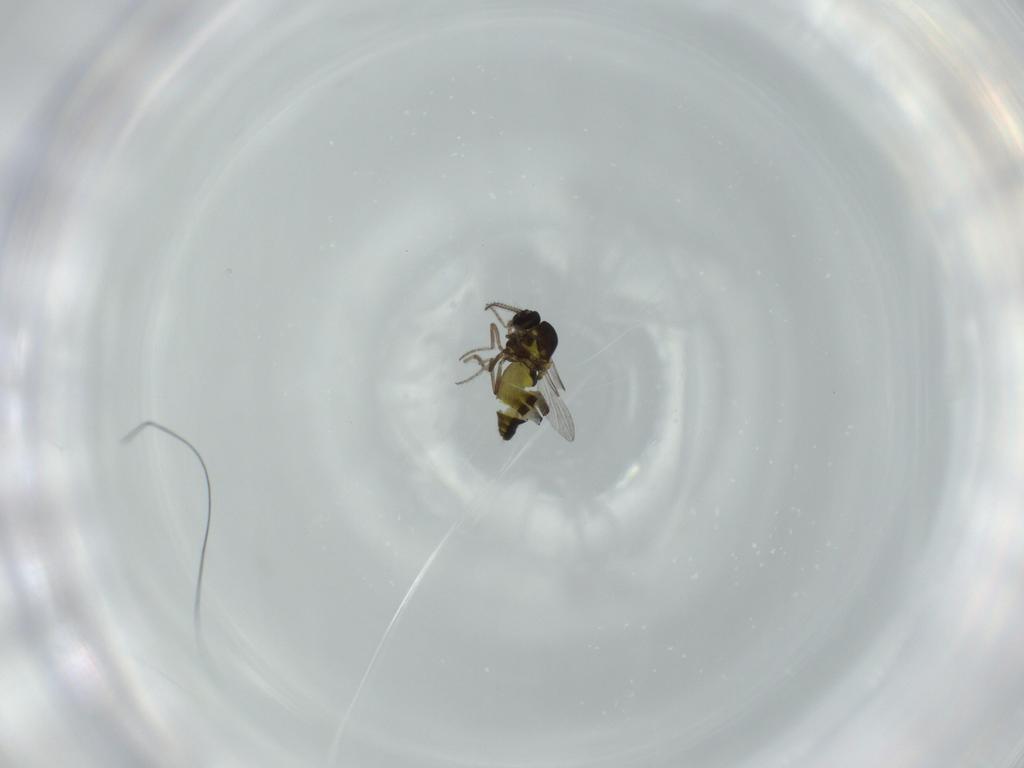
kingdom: Animalia
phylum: Arthropoda
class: Insecta
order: Diptera
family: Ceratopogonidae
